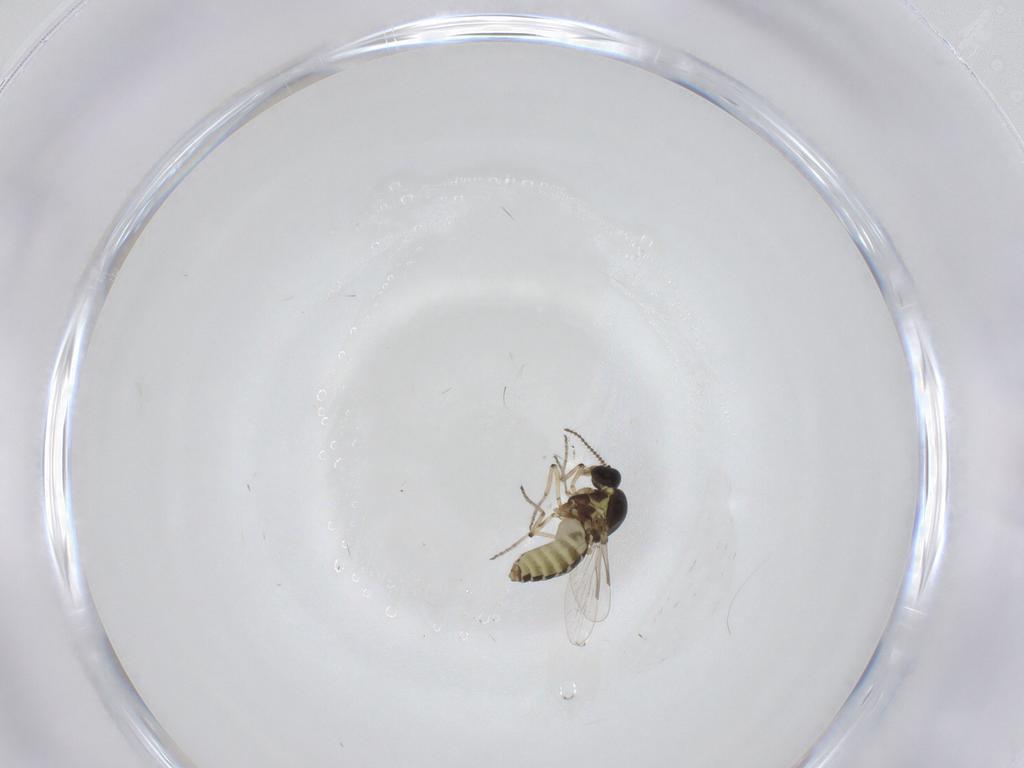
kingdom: Animalia
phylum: Arthropoda
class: Insecta
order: Diptera
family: Ceratopogonidae
